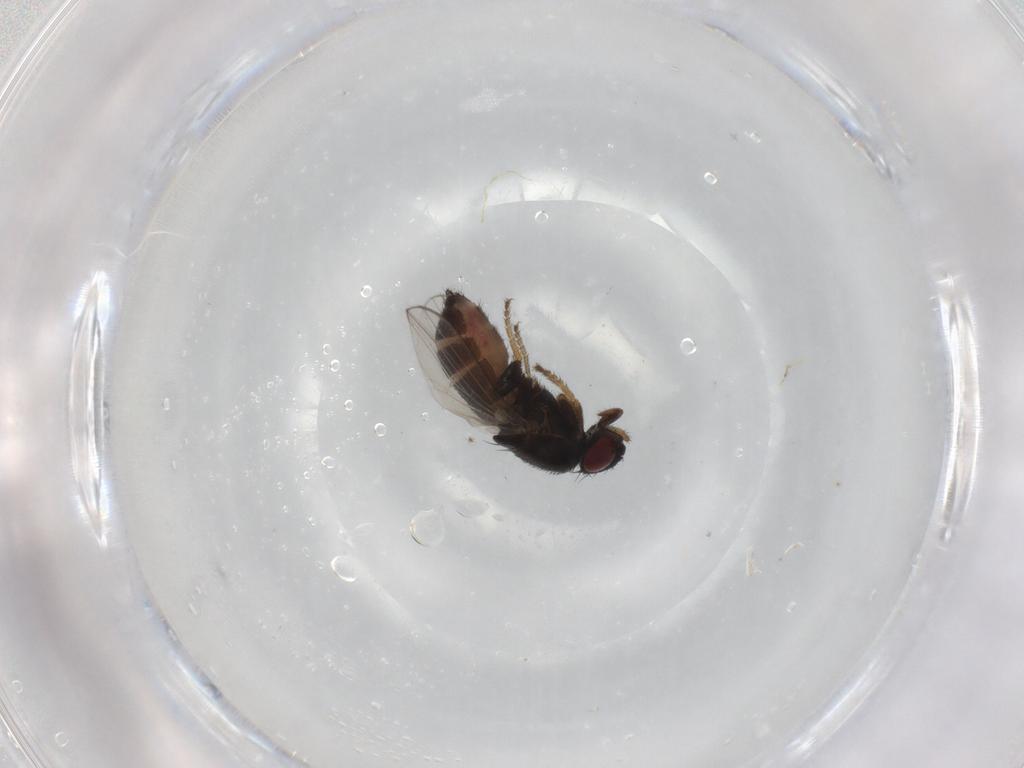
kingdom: Animalia
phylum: Arthropoda
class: Insecta
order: Diptera
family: Milichiidae
